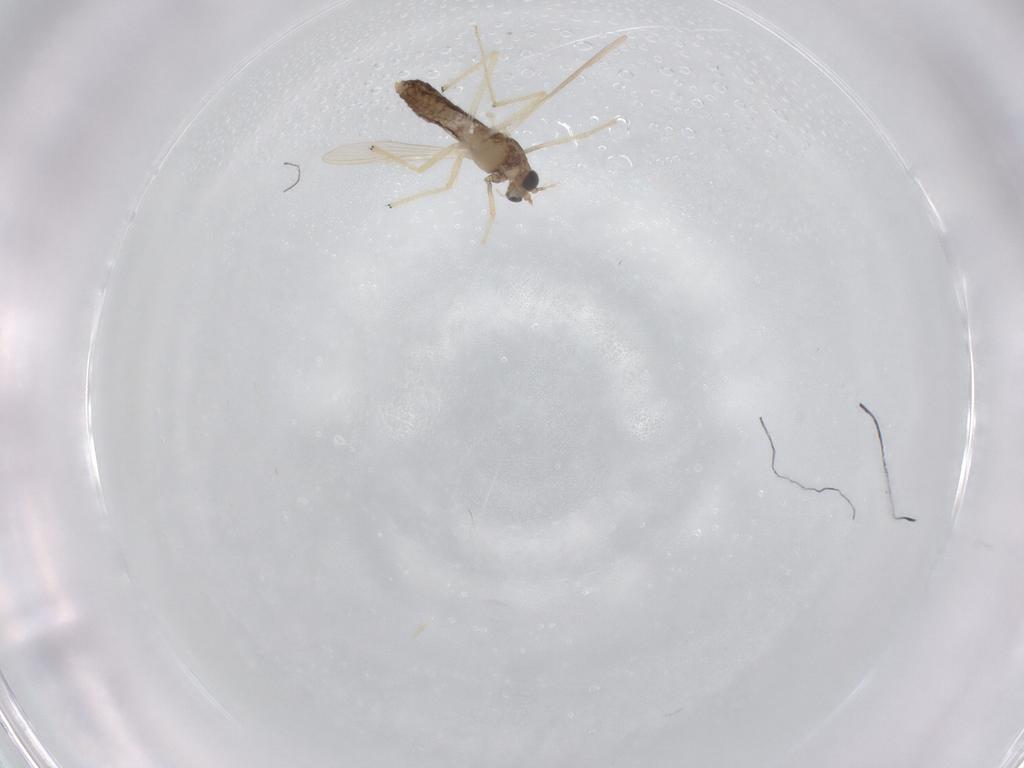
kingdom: Animalia
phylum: Arthropoda
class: Insecta
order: Diptera
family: Chironomidae
